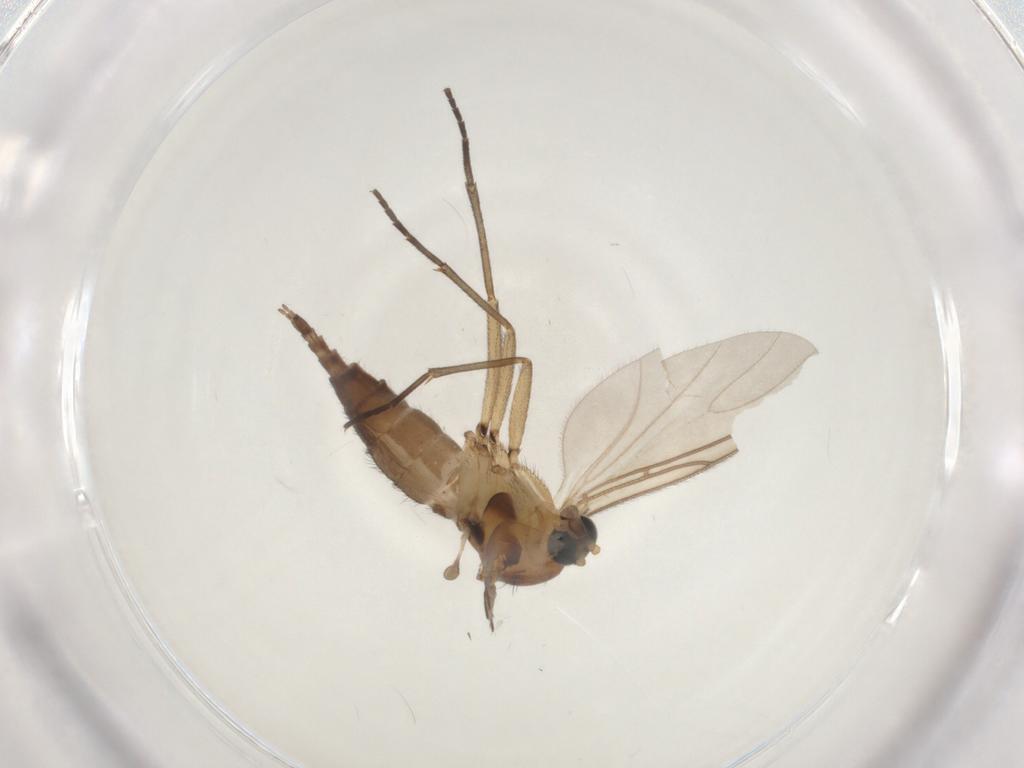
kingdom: Animalia
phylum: Arthropoda
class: Insecta
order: Diptera
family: Sciaridae
